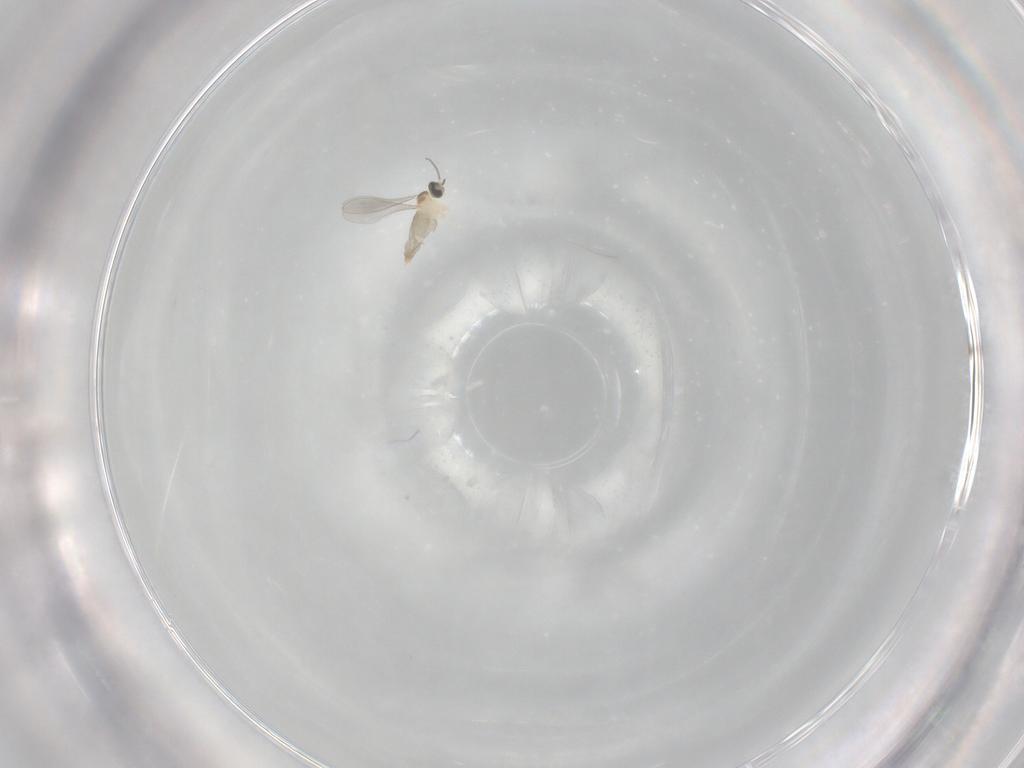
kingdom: Animalia
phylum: Arthropoda
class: Insecta
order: Diptera
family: Cecidomyiidae
